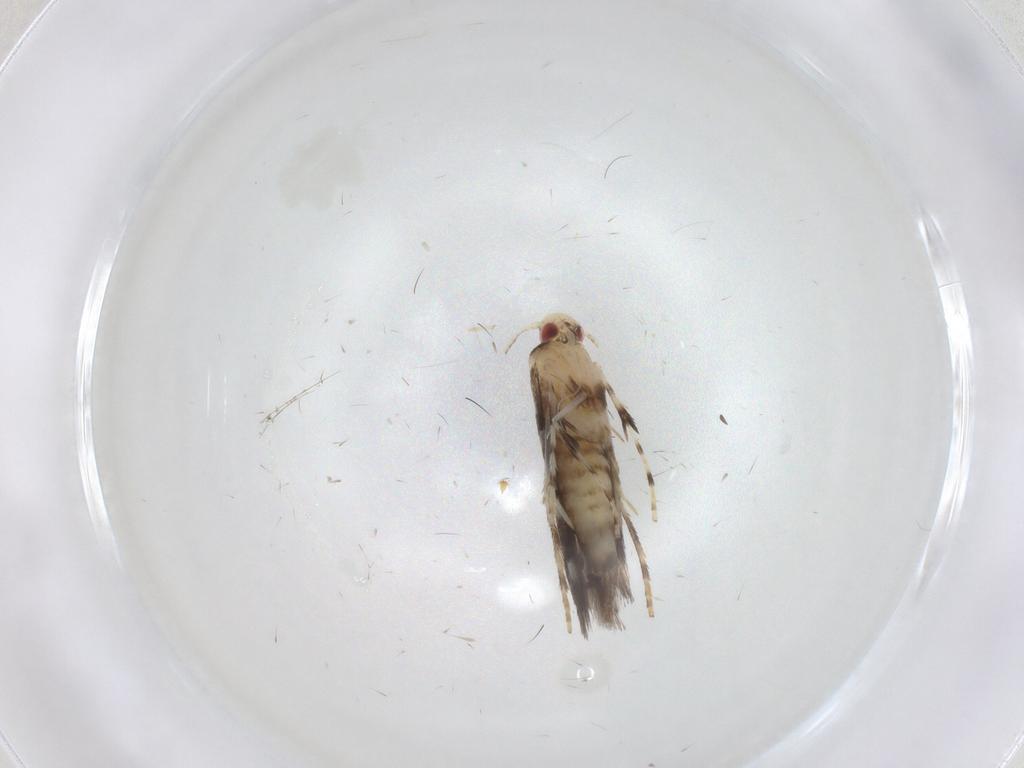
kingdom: Animalia
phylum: Arthropoda
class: Insecta
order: Lepidoptera
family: Gracillariidae
